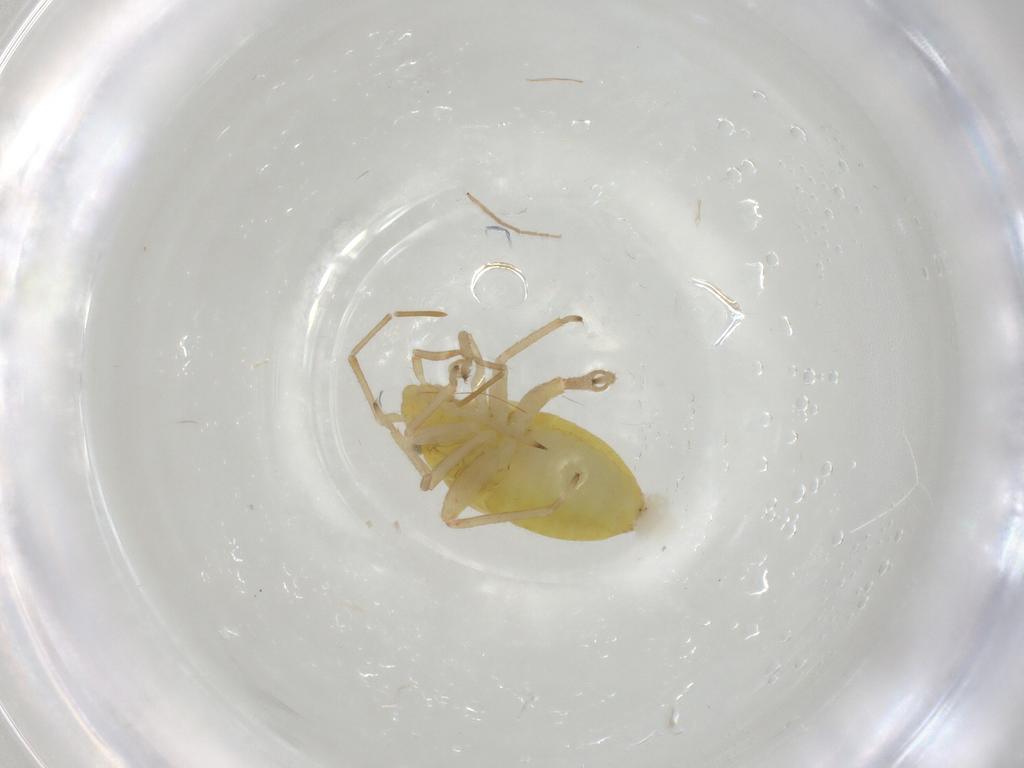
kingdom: Animalia
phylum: Arthropoda
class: Insecta
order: Hemiptera
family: Miridae
